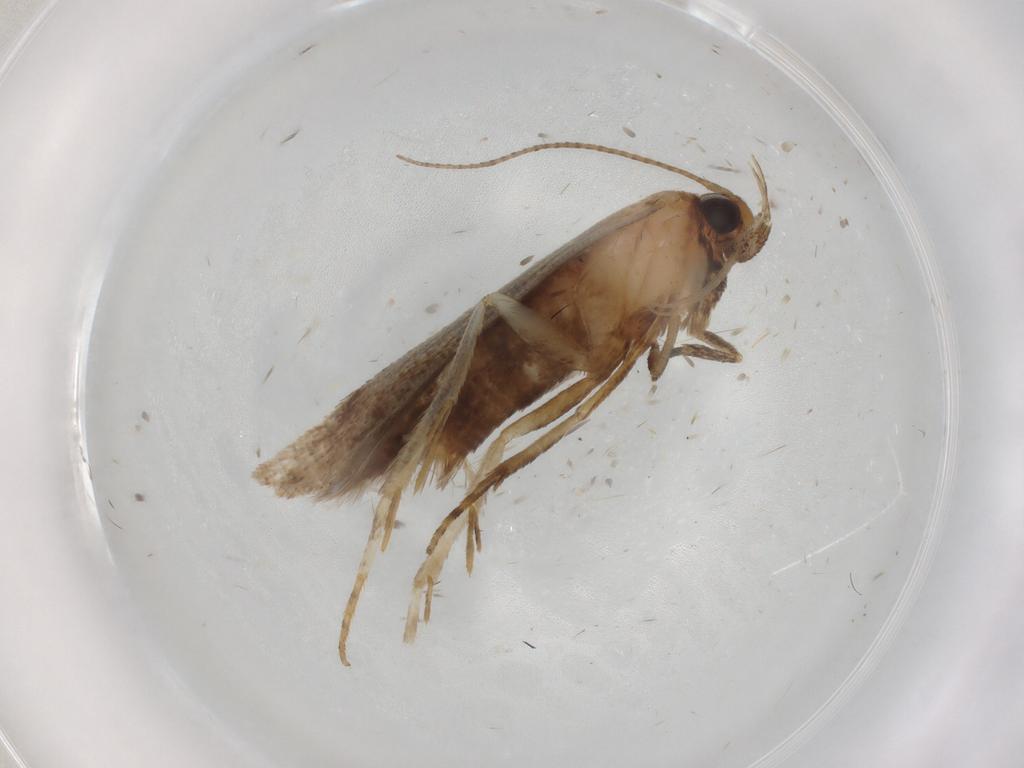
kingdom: Animalia
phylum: Arthropoda
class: Insecta
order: Lepidoptera
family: Gelechiidae
